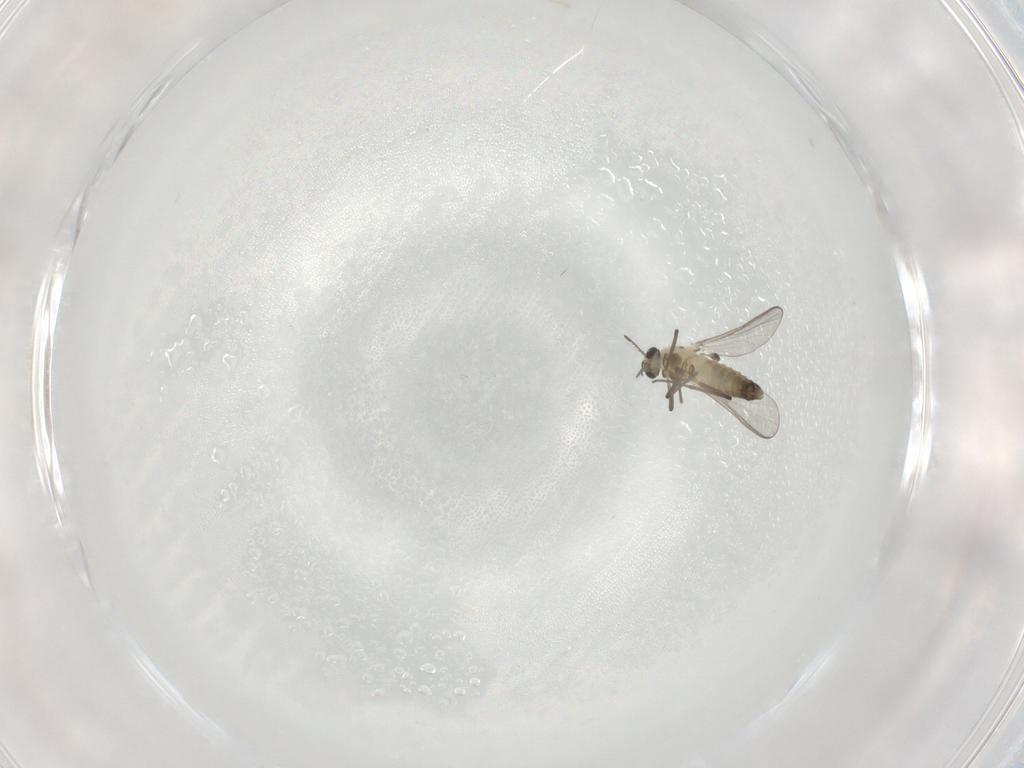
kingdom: Animalia
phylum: Arthropoda
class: Insecta
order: Diptera
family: Chironomidae
